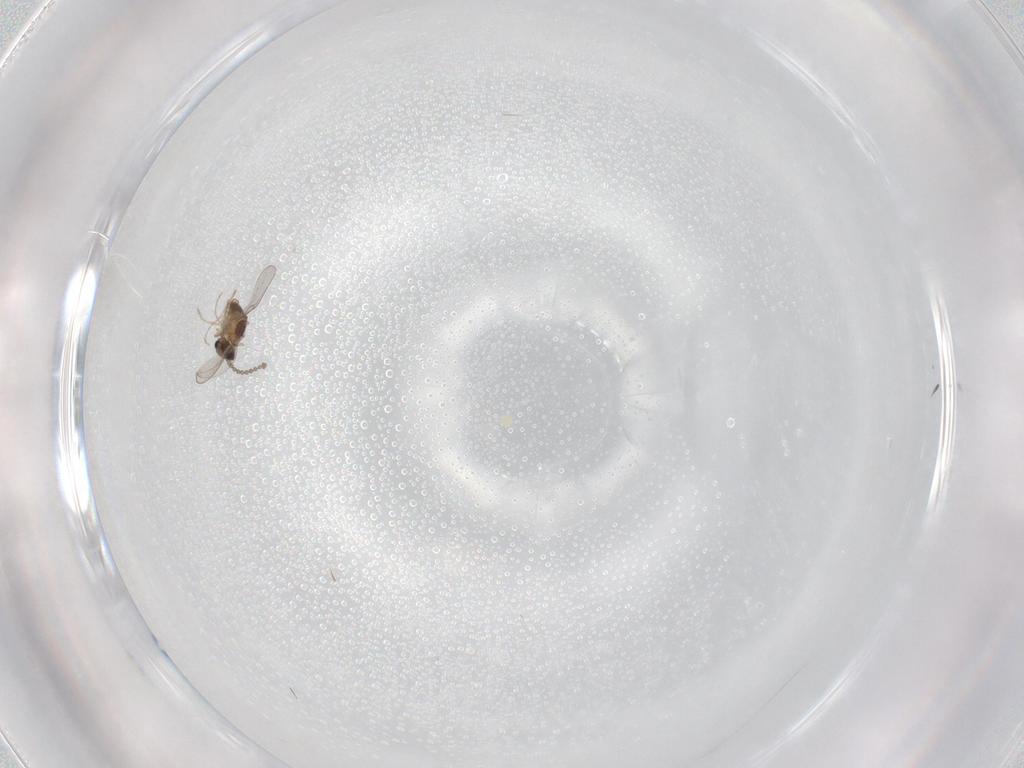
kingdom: Animalia
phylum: Arthropoda
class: Insecta
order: Diptera
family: Cecidomyiidae
